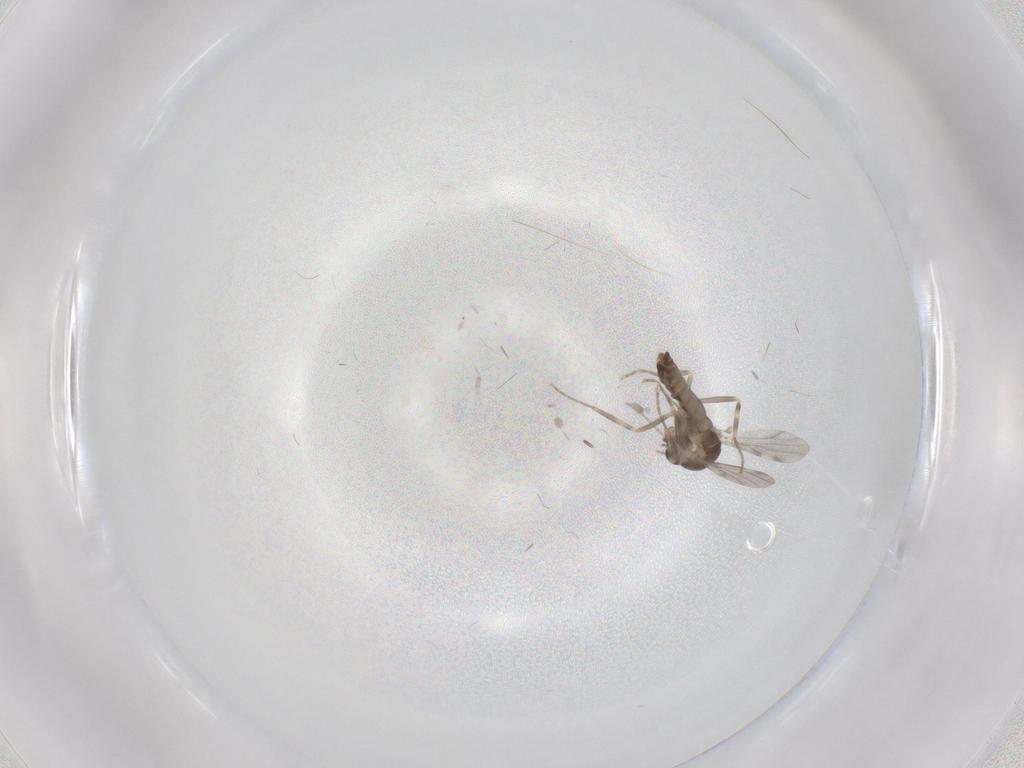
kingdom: Animalia
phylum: Arthropoda
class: Insecta
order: Diptera
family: Ceratopogonidae
